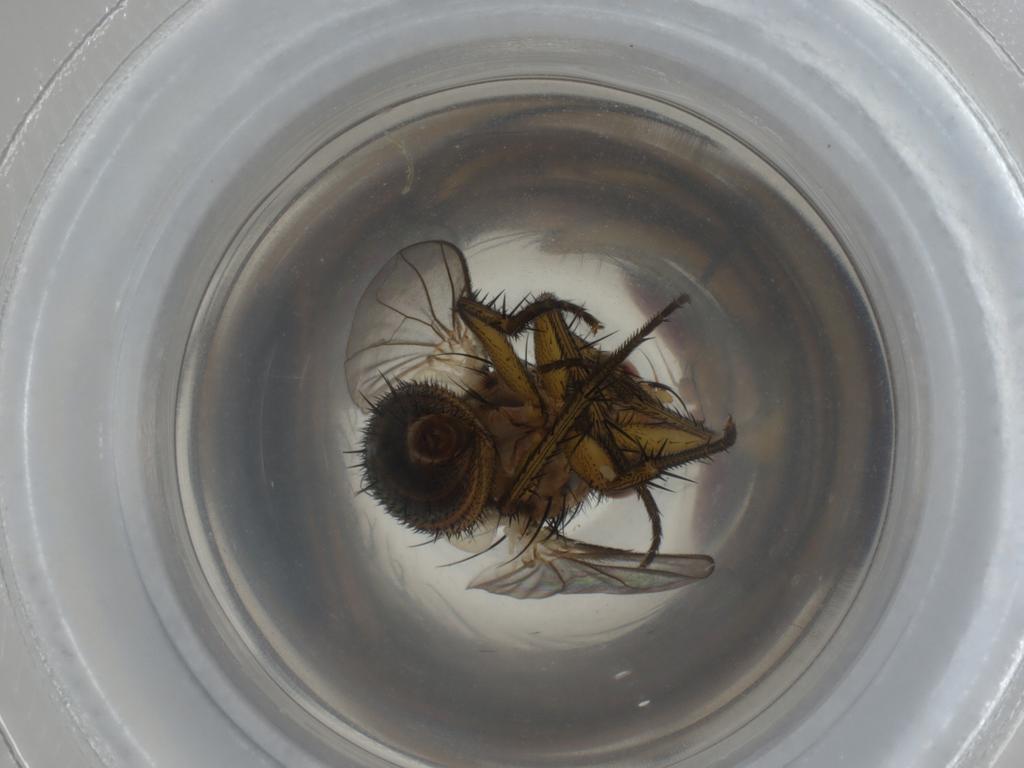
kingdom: Animalia
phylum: Arthropoda
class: Insecta
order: Diptera
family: Tachinidae
